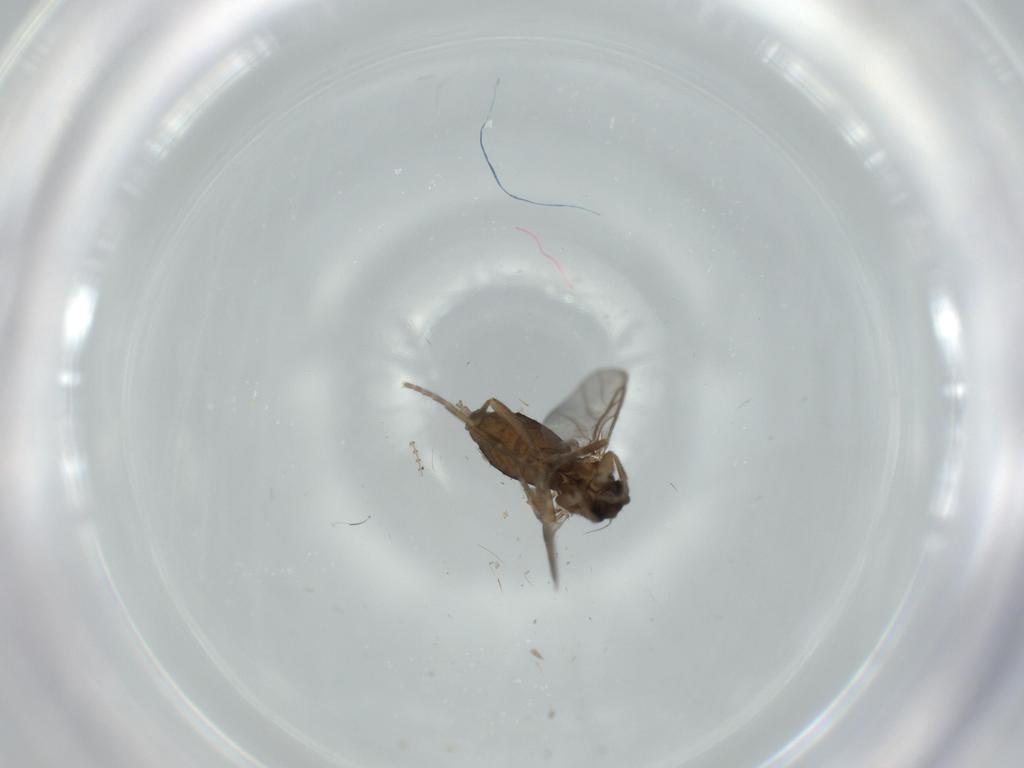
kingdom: Animalia
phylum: Arthropoda
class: Insecta
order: Diptera
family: Phoridae
